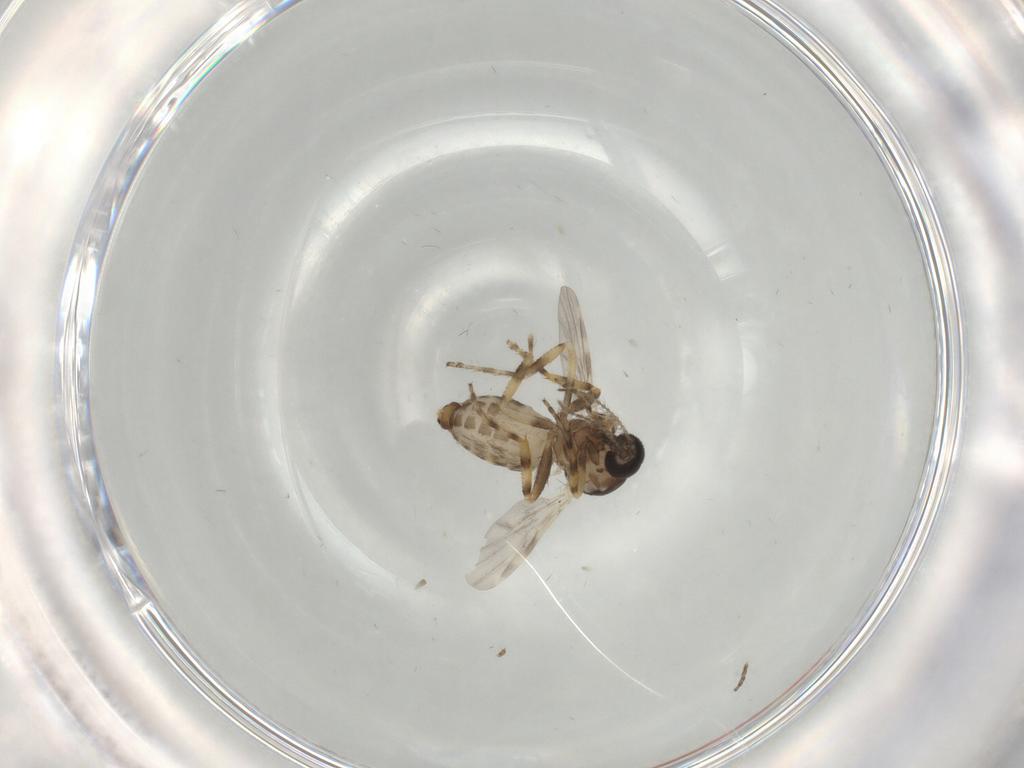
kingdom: Animalia
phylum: Arthropoda
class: Insecta
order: Diptera
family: Ceratopogonidae
